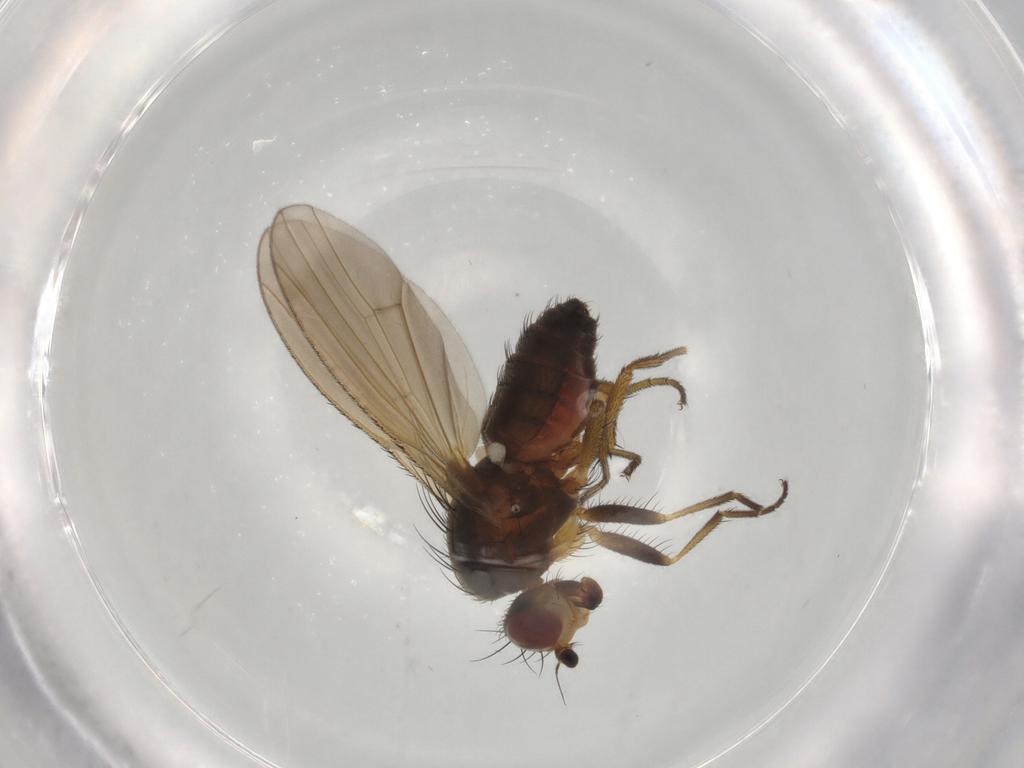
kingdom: Animalia
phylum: Arthropoda
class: Insecta
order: Diptera
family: Heleomyzidae
